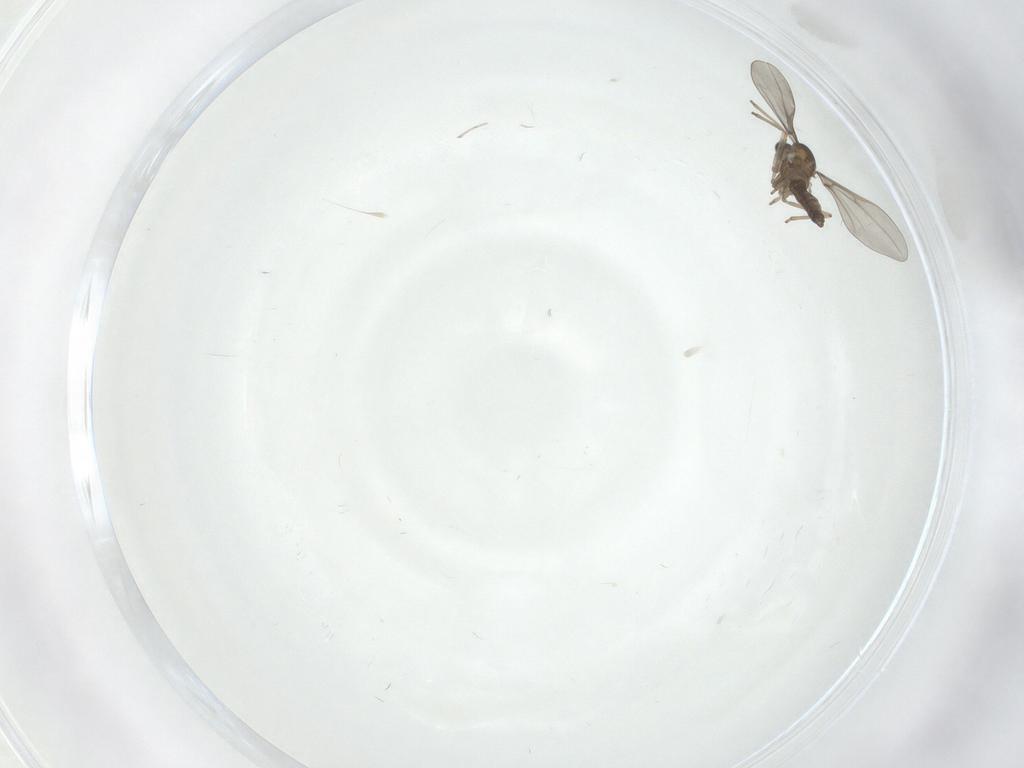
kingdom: Animalia
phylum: Arthropoda
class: Insecta
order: Diptera
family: Cecidomyiidae
